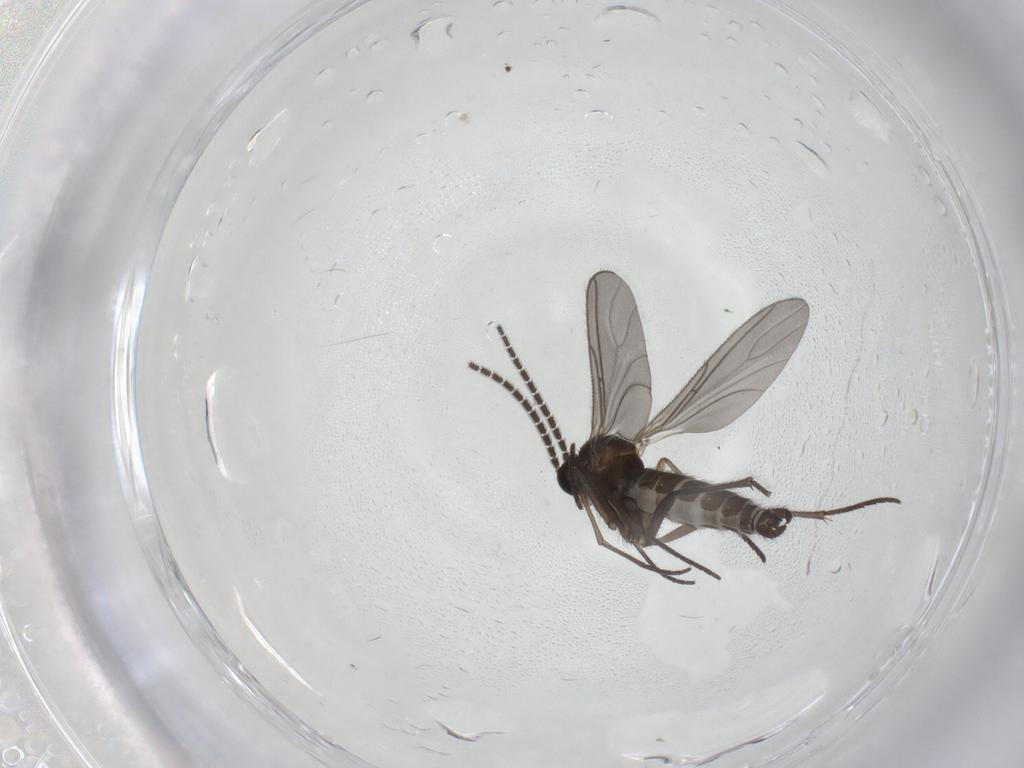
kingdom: Animalia
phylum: Arthropoda
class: Insecta
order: Diptera
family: Sciaridae
